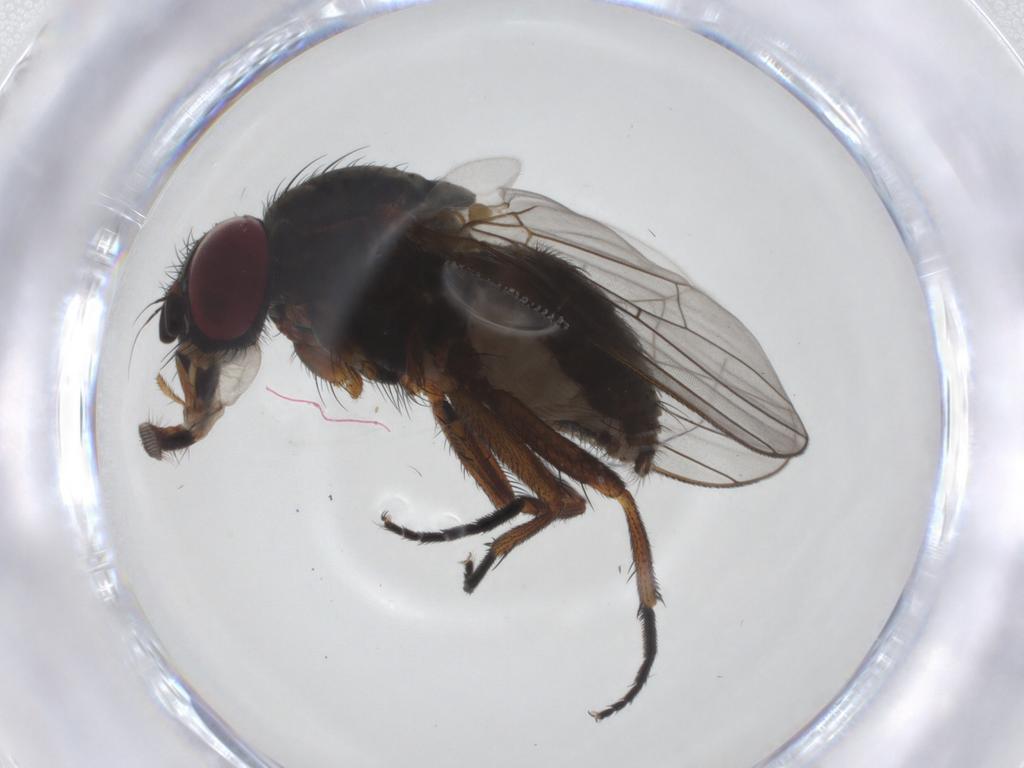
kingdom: Animalia
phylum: Arthropoda
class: Insecta
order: Diptera
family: Fannia
